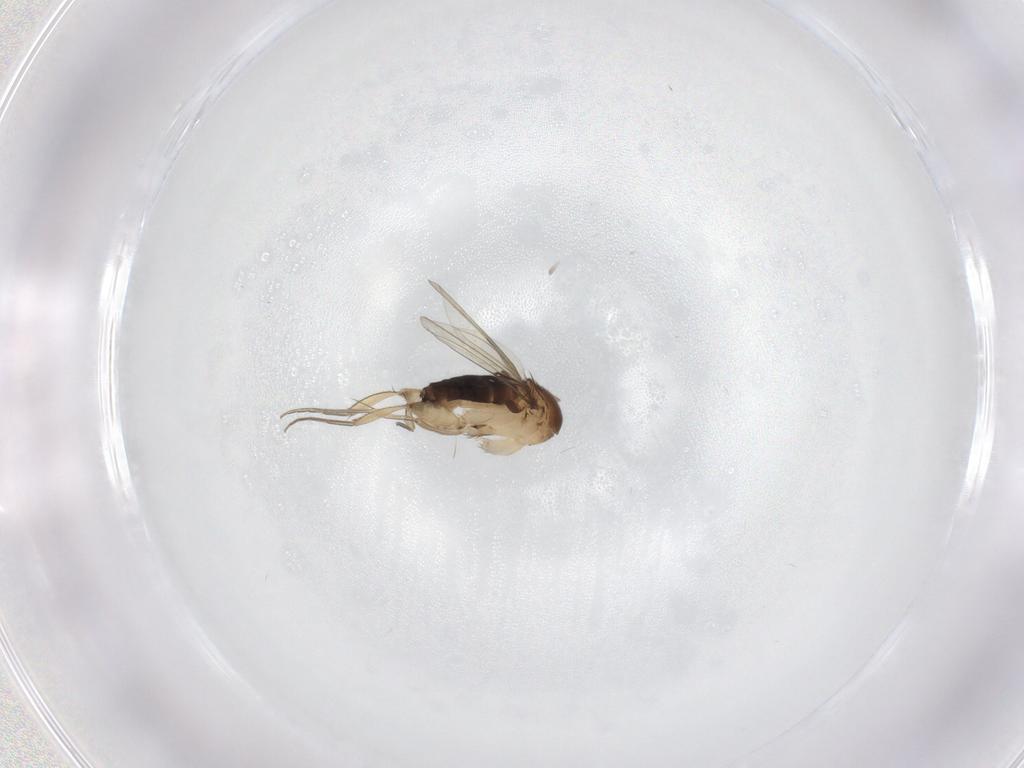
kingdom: Animalia
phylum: Arthropoda
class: Insecta
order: Diptera
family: Phoridae
